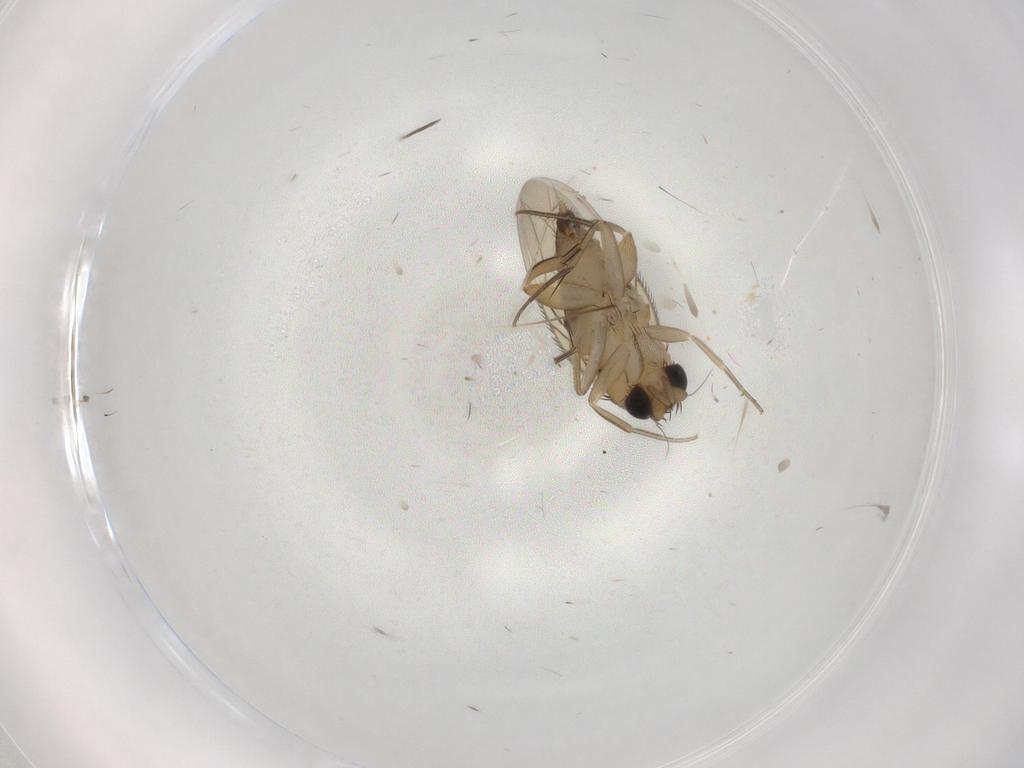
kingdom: Animalia
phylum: Arthropoda
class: Insecta
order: Diptera
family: Phoridae
